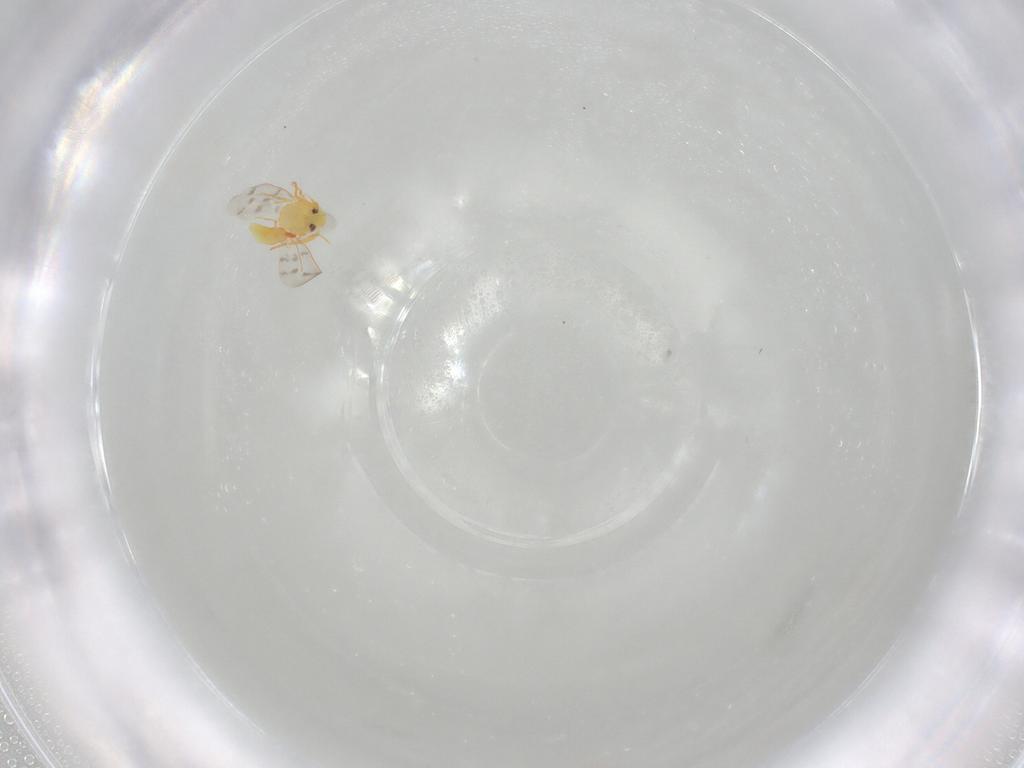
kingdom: Animalia
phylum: Arthropoda
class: Insecta
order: Hemiptera
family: Aleyrodidae
